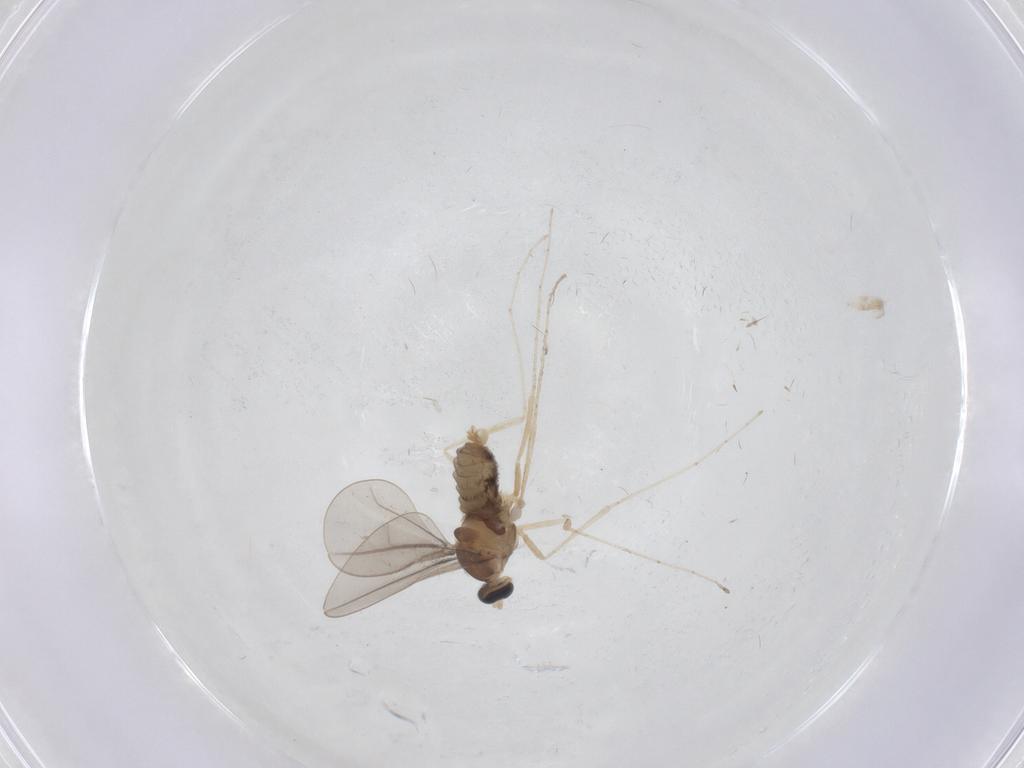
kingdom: Animalia
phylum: Arthropoda
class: Insecta
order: Diptera
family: Cecidomyiidae
